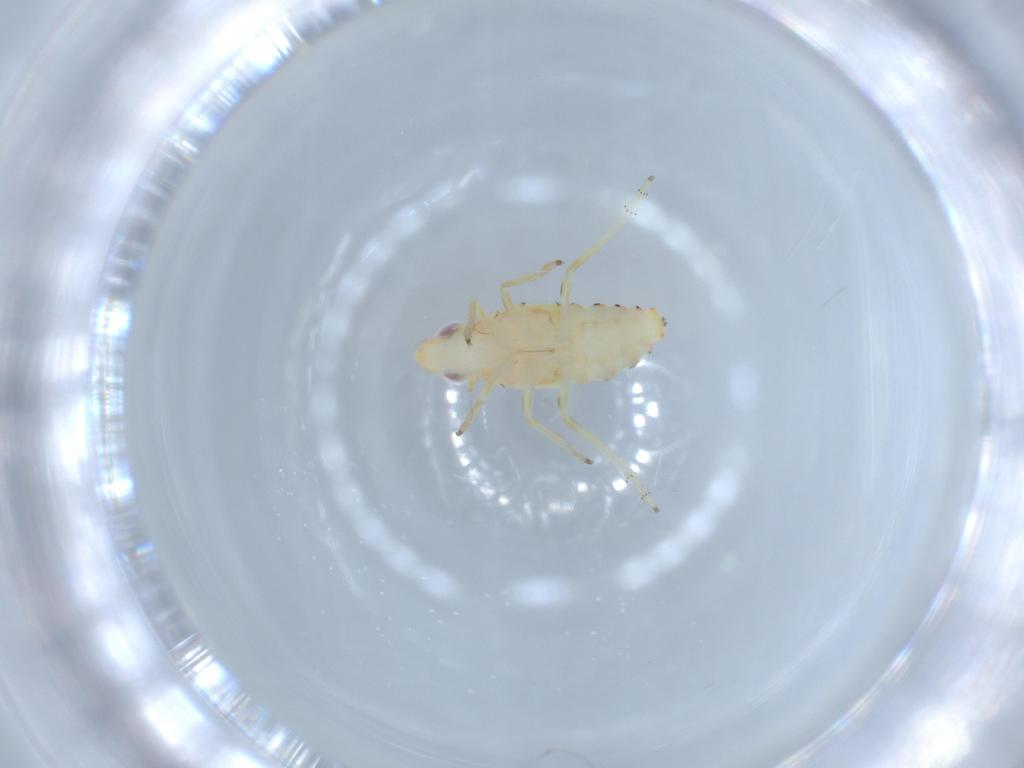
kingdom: Animalia
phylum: Arthropoda
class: Insecta
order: Hemiptera
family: Tropiduchidae
